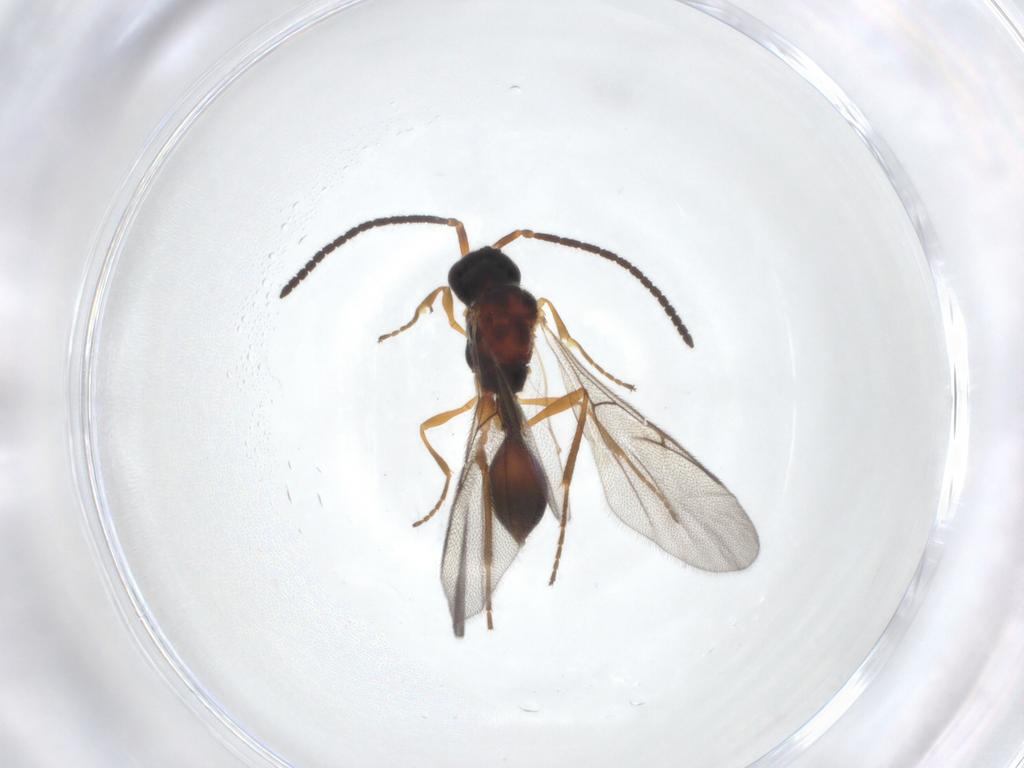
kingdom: Animalia
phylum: Arthropoda
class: Insecta
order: Hymenoptera
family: Diapriidae
